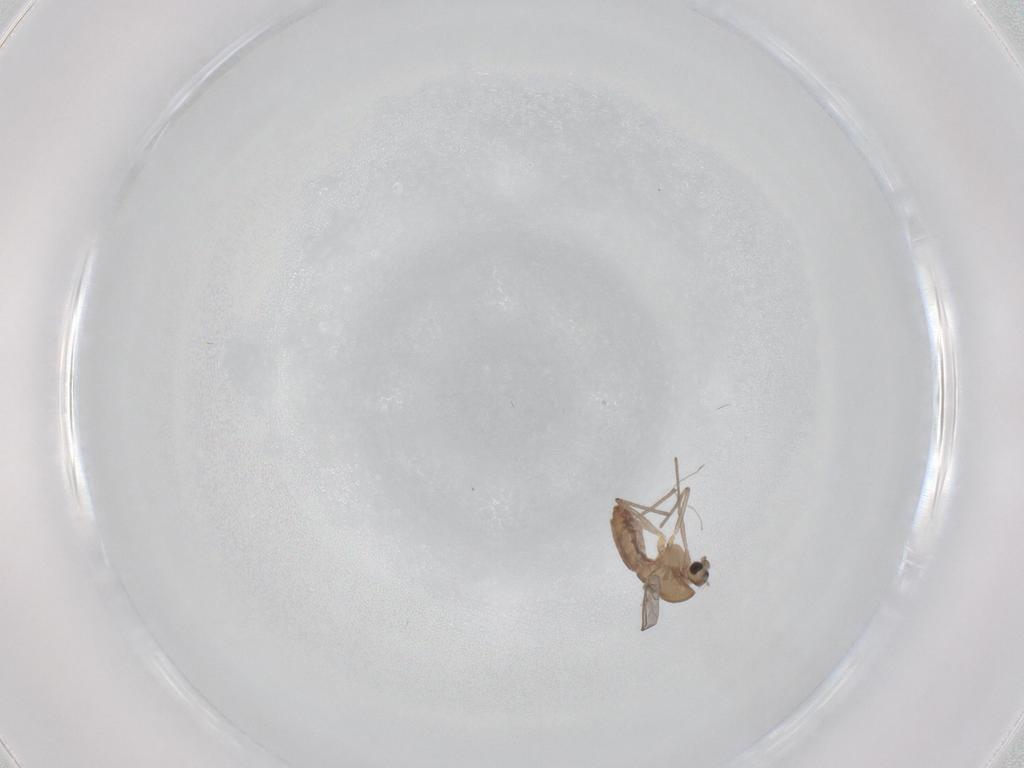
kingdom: Animalia
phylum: Arthropoda
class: Insecta
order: Diptera
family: Chironomidae
